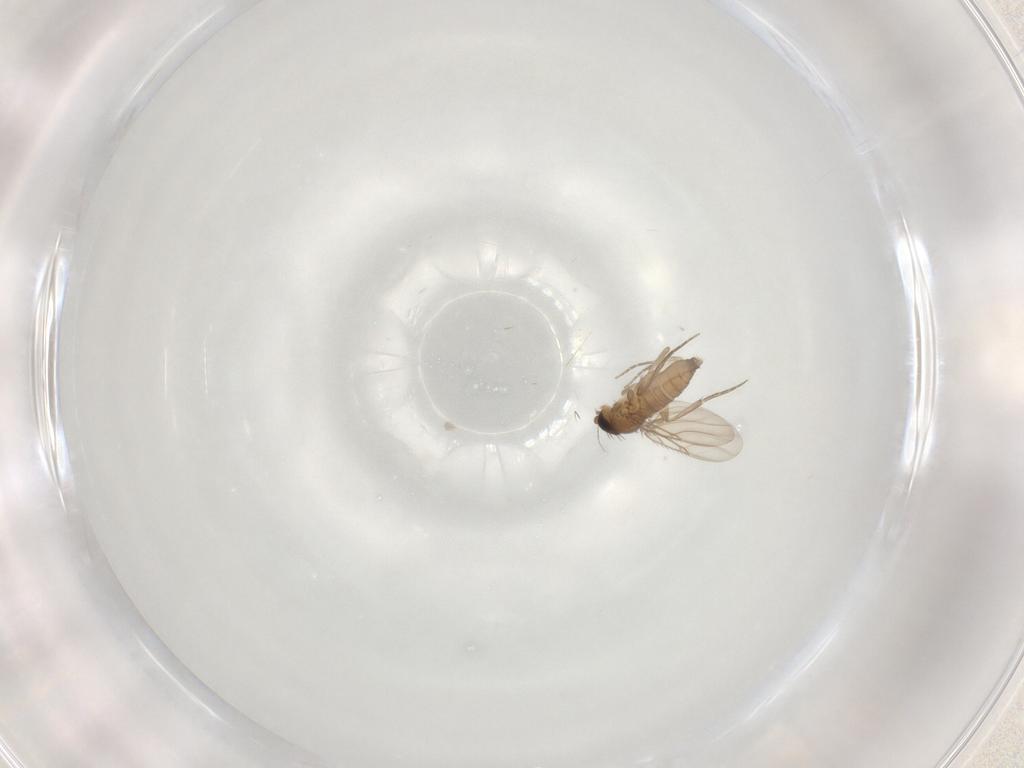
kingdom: Animalia
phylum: Arthropoda
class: Insecta
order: Diptera
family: Phoridae
